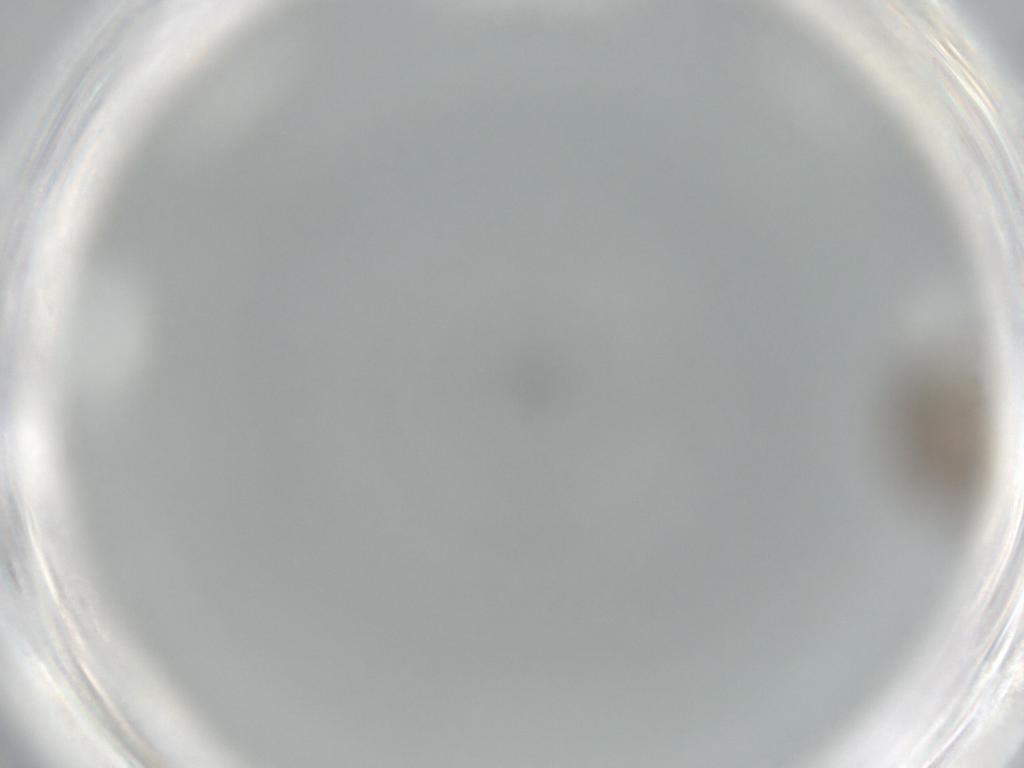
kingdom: Animalia
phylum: Arthropoda
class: Insecta
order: Diptera
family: Psychodidae
